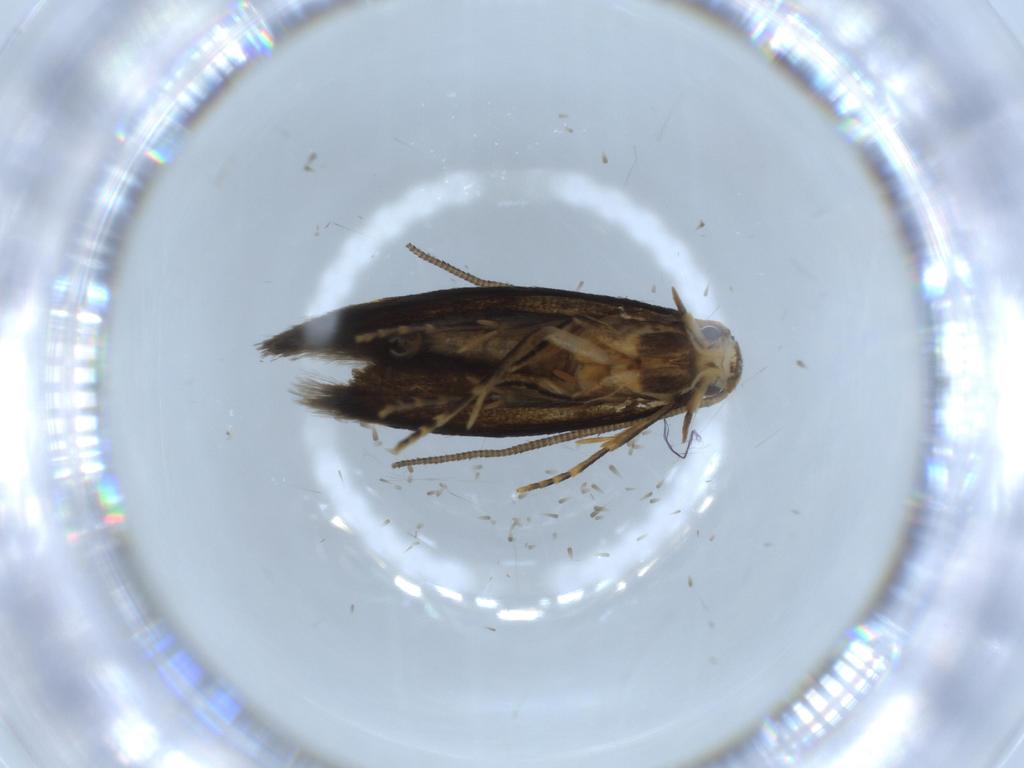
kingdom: Animalia
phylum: Arthropoda
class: Insecta
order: Lepidoptera
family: Tineidae
